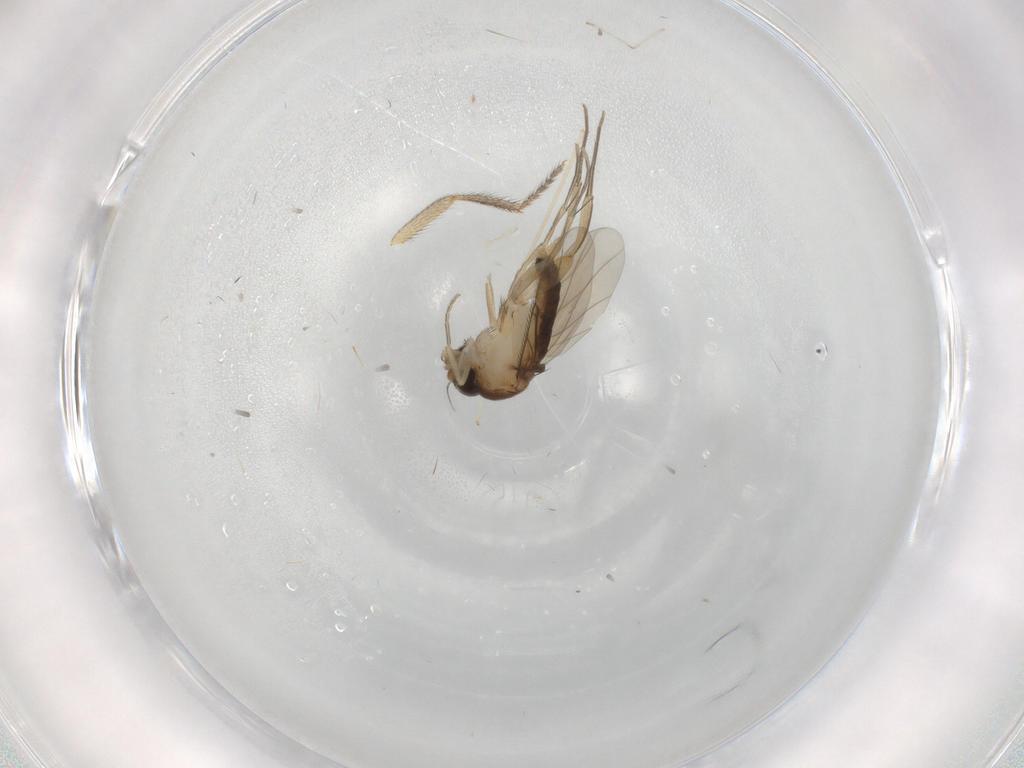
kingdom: Animalia
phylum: Arthropoda
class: Insecta
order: Diptera
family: Phoridae
